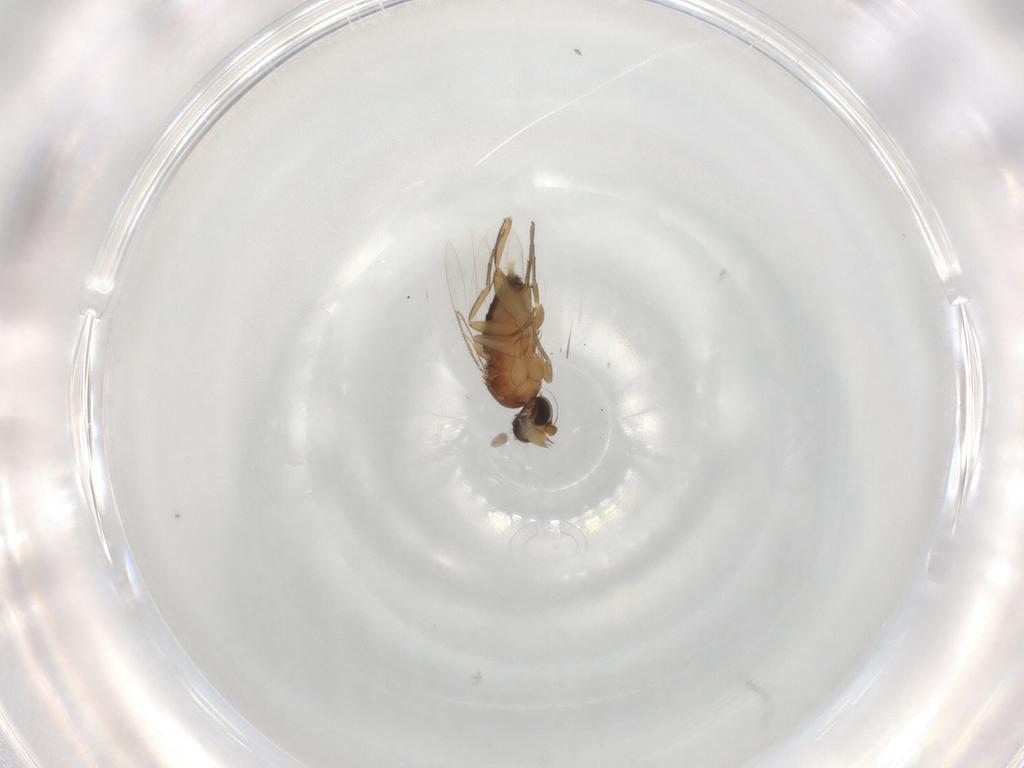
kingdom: Animalia
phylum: Arthropoda
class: Insecta
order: Diptera
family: Phoridae
